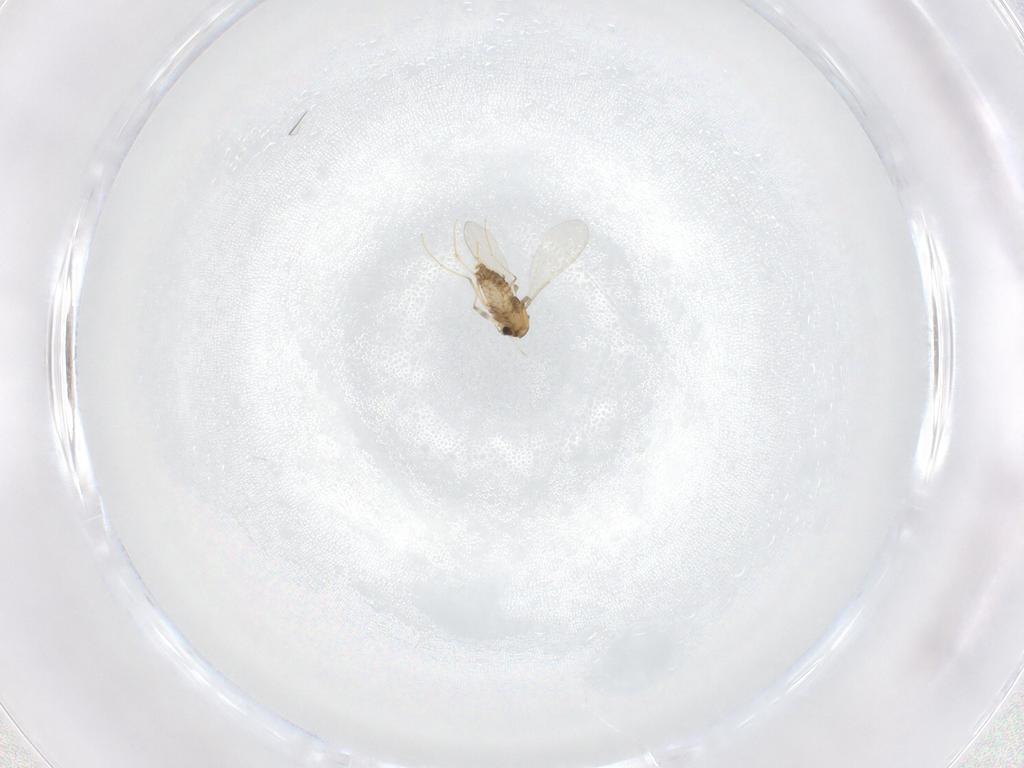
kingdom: Animalia
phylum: Arthropoda
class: Insecta
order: Diptera
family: Chironomidae
